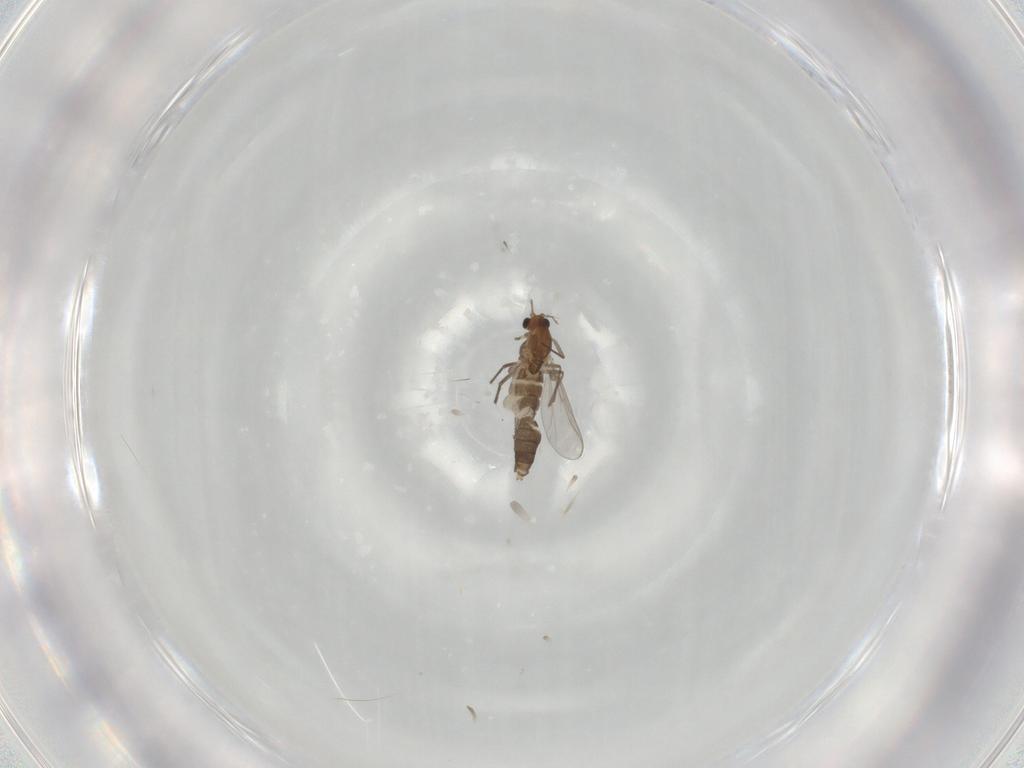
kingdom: Animalia
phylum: Arthropoda
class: Insecta
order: Diptera
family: Chironomidae
